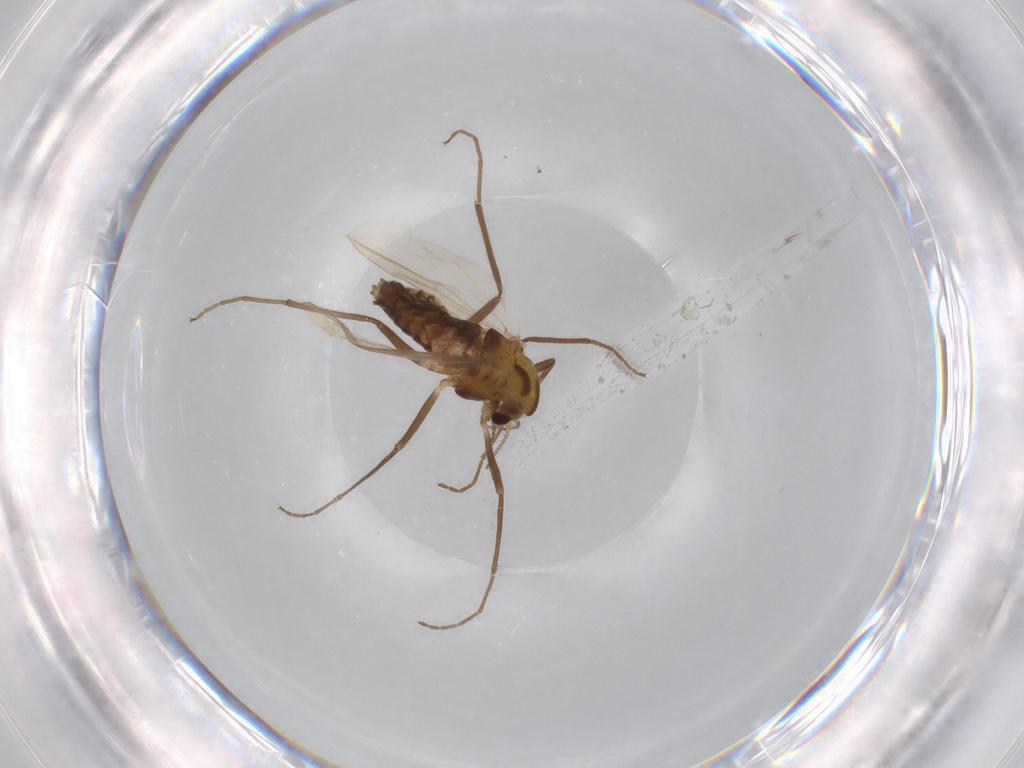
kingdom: Animalia
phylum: Arthropoda
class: Insecta
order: Diptera
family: Chironomidae
